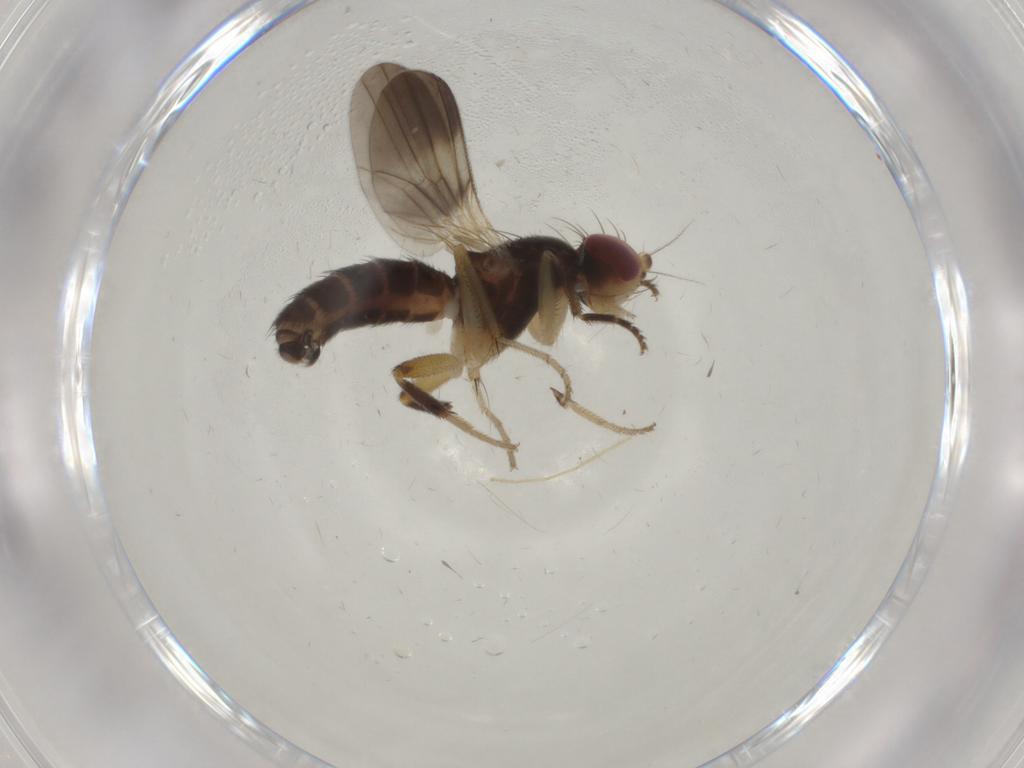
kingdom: Animalia
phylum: Arthropoda
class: Insecta
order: Diptera
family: Clusiidae
